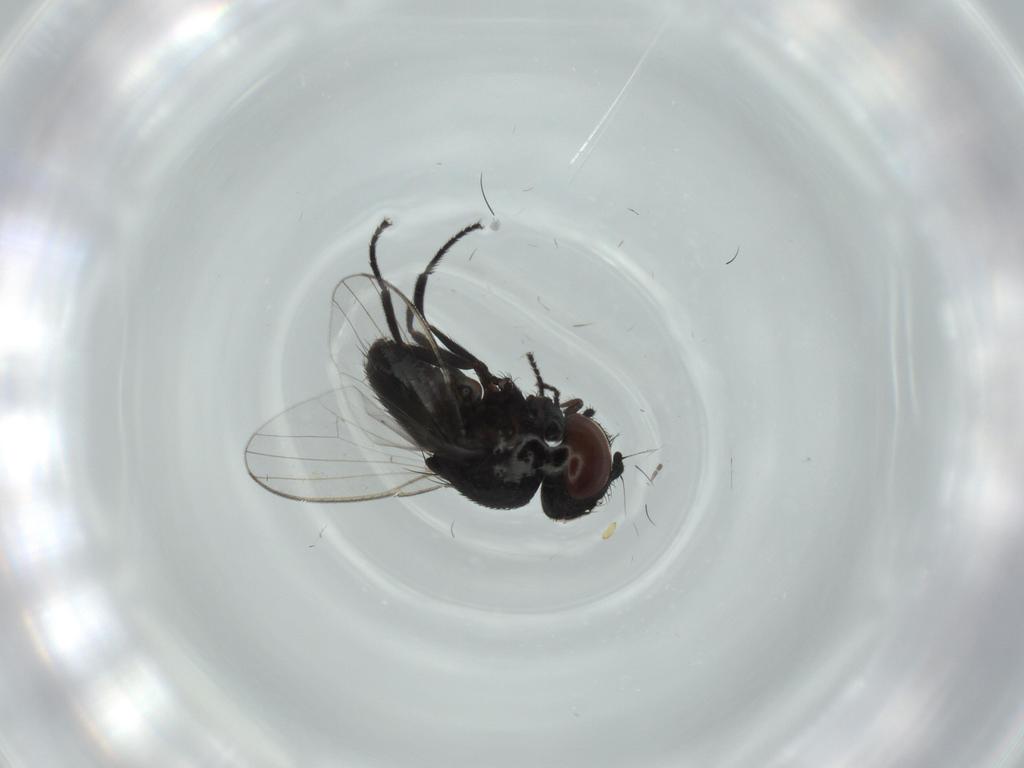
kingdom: Animalia
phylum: Arthropoda
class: Insecta
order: Diptera
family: Milichiidae
